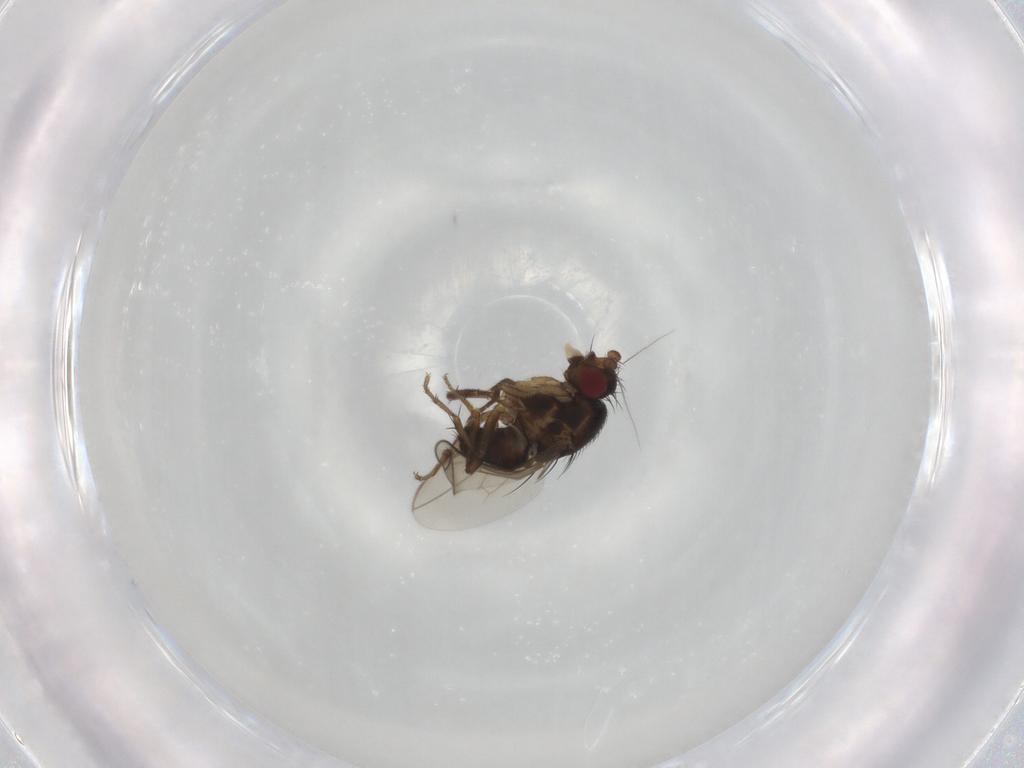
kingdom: Animalia
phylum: Arthropoda
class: Insecta
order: Diptera
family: Sphaeroceridae
